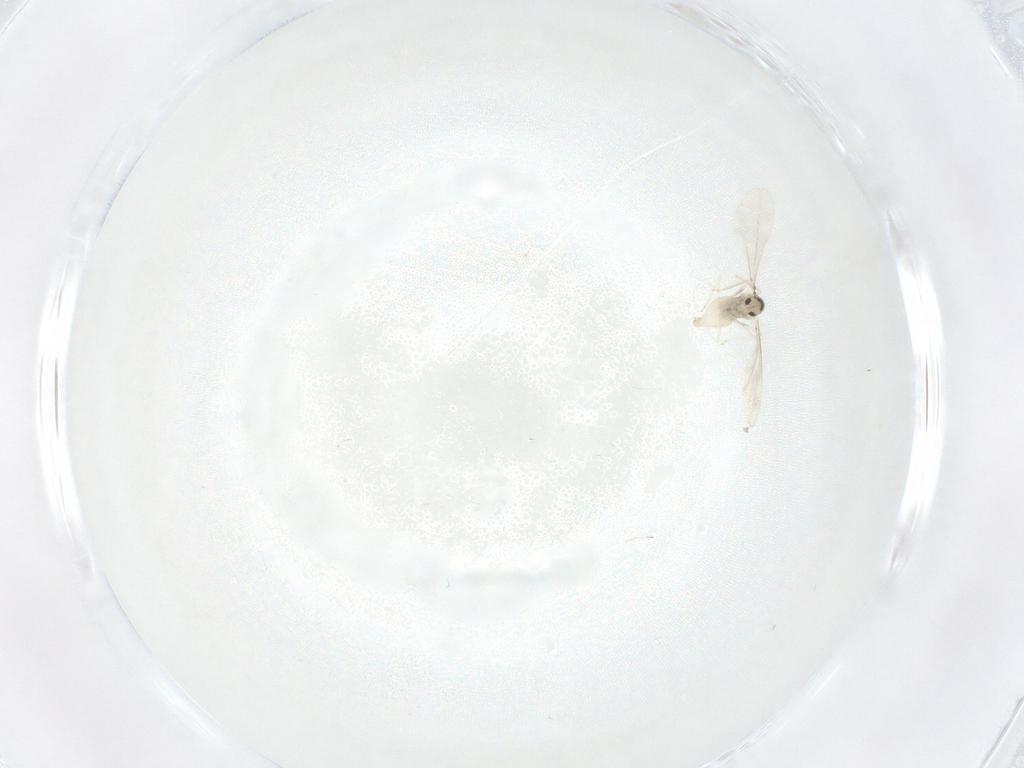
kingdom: Animalia
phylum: Arthropoda
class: Insecta
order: Diptera
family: Cecidomyiidae
